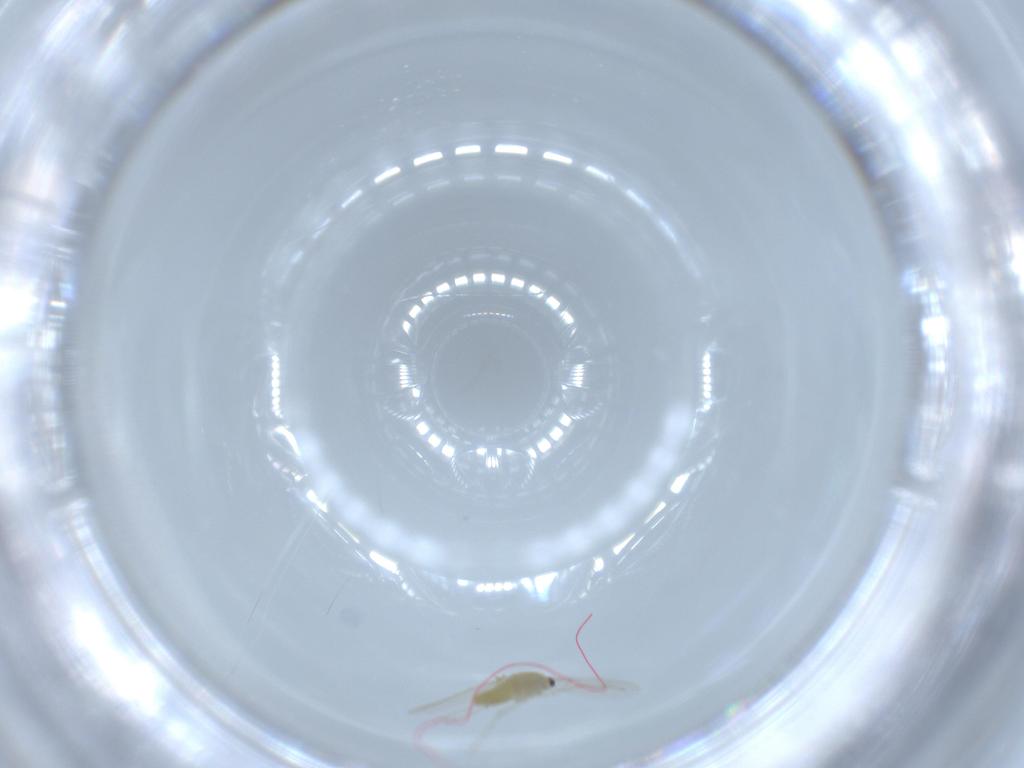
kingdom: Animalia
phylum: Arthropoda
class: Insecta
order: Diptera
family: Chironomidae
